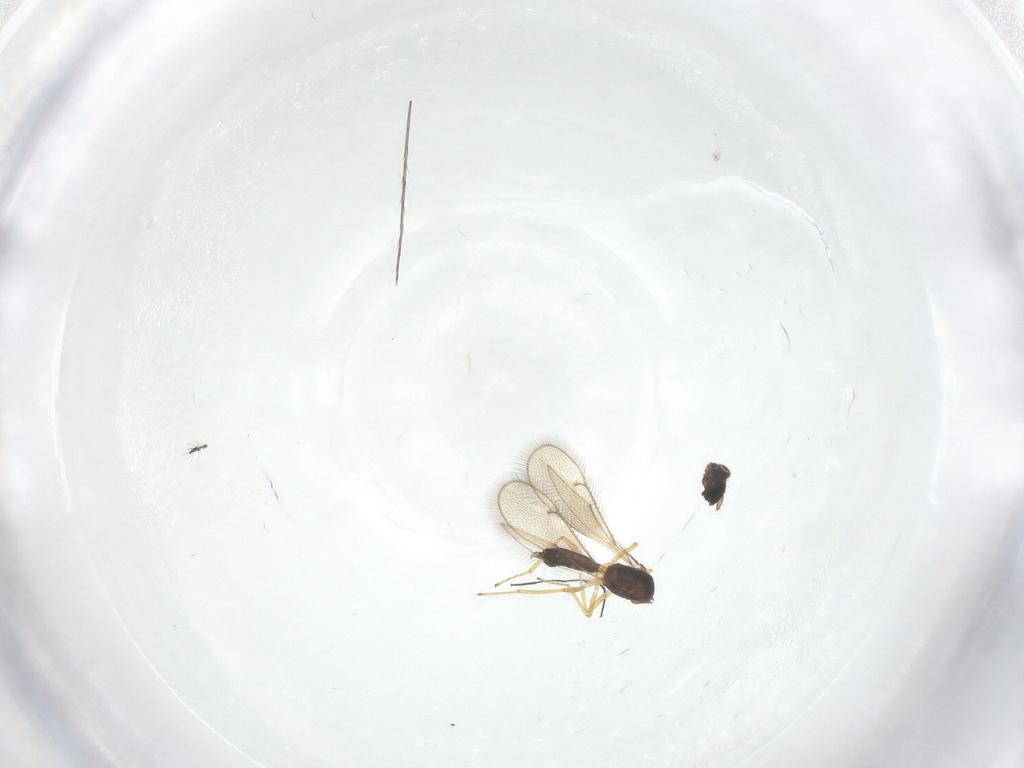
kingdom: Animalia
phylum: Arthropoda
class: Insecta
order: Hymenoptera
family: Eulophidae
